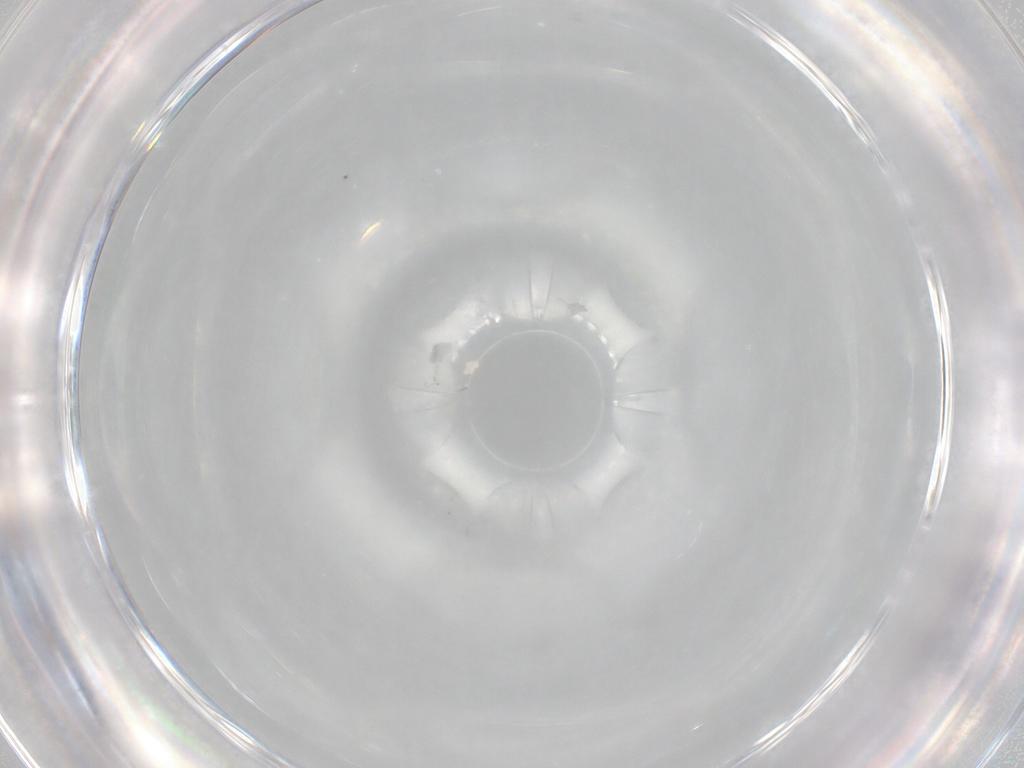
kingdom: Animalia
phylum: Arthropoda
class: Insecta
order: Diptera
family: Ceratopogonidae
